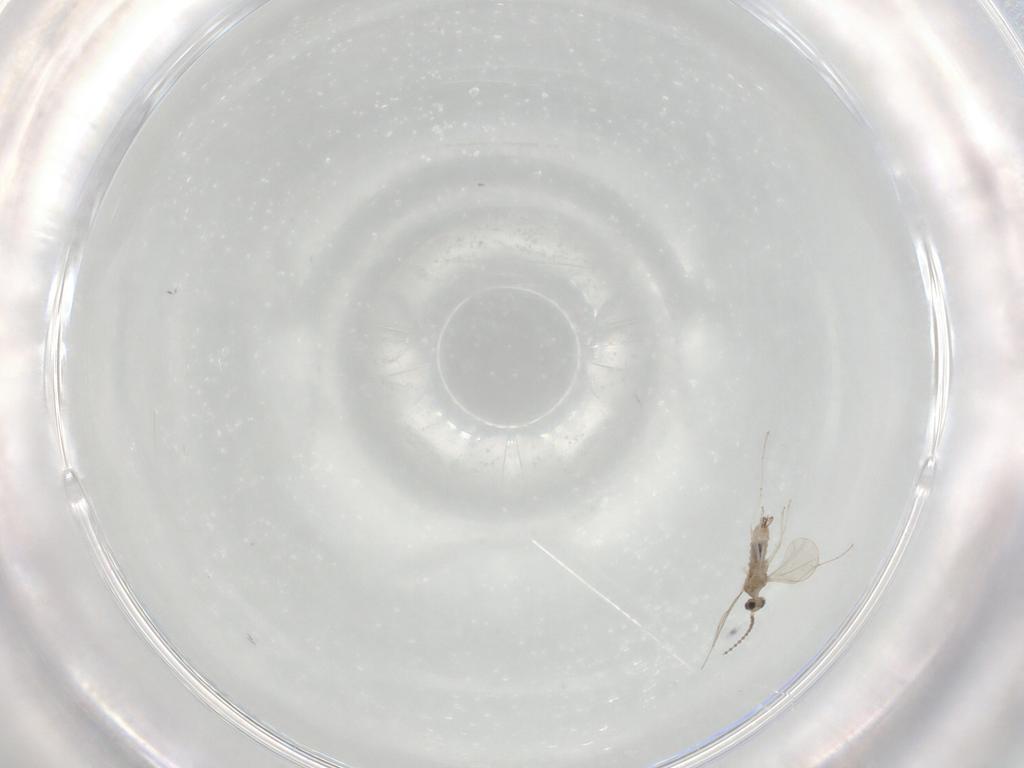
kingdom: Animalia
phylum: Arthropoda
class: Insecta
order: Diptera
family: Cecidomyiidae
